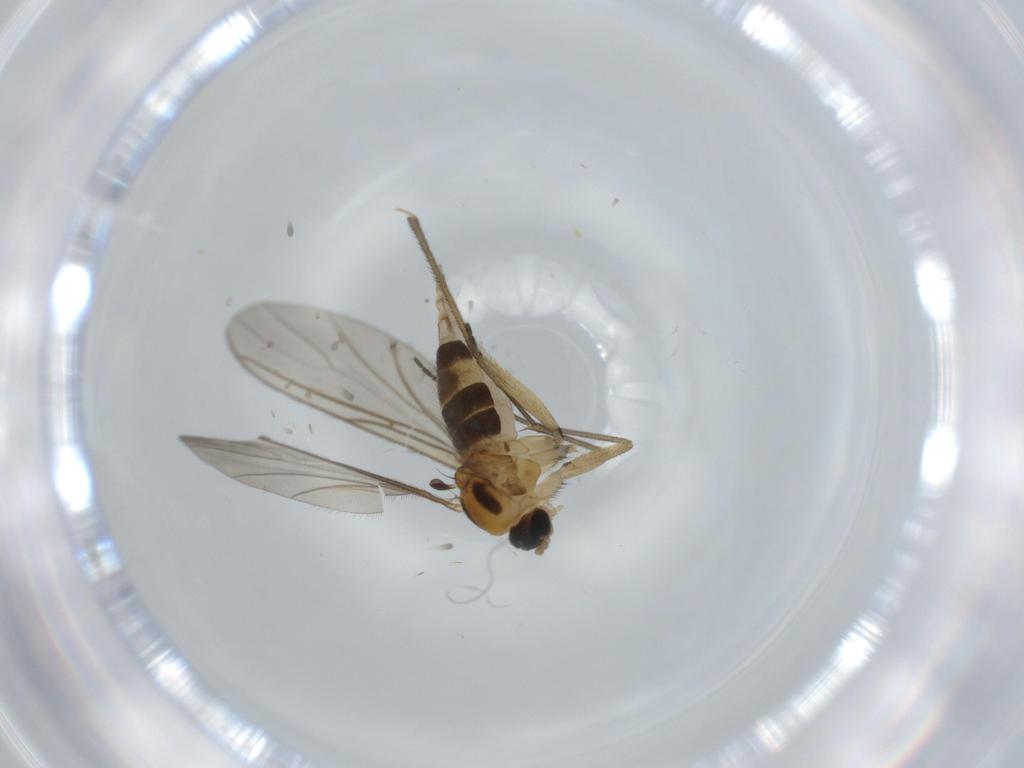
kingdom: Animalia
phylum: Arthropoda
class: Insecta
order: Diptera
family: Sciaridae
